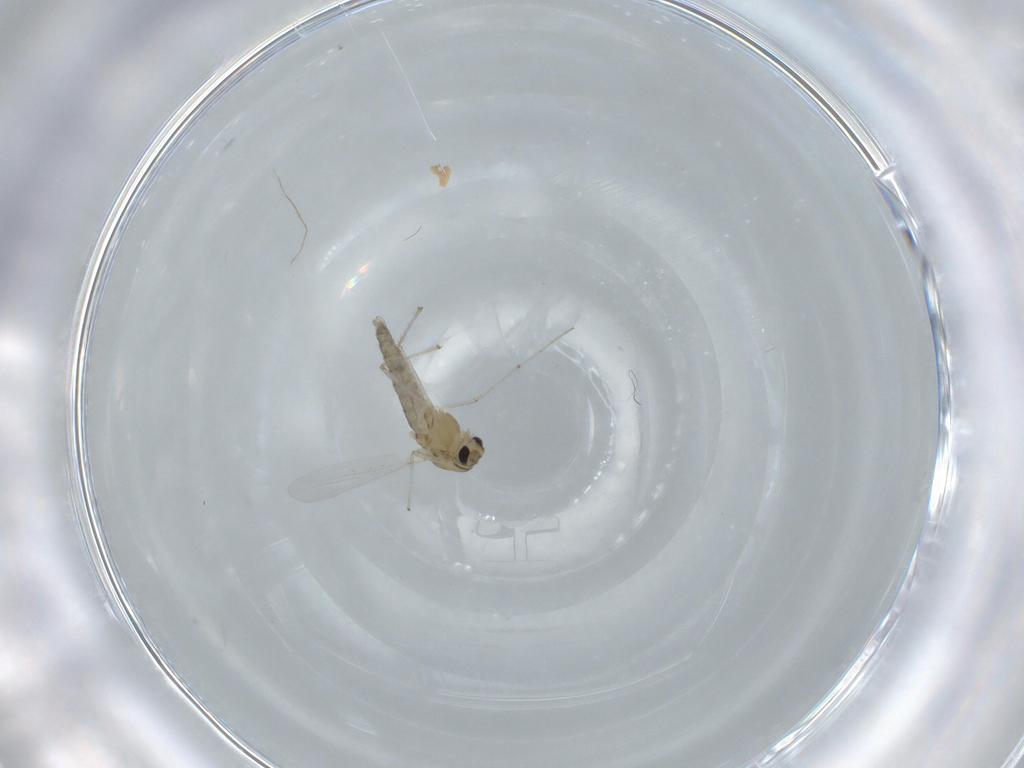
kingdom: Animalia
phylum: Arthropoda
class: Insecta
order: Diptera
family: Chironomidae
